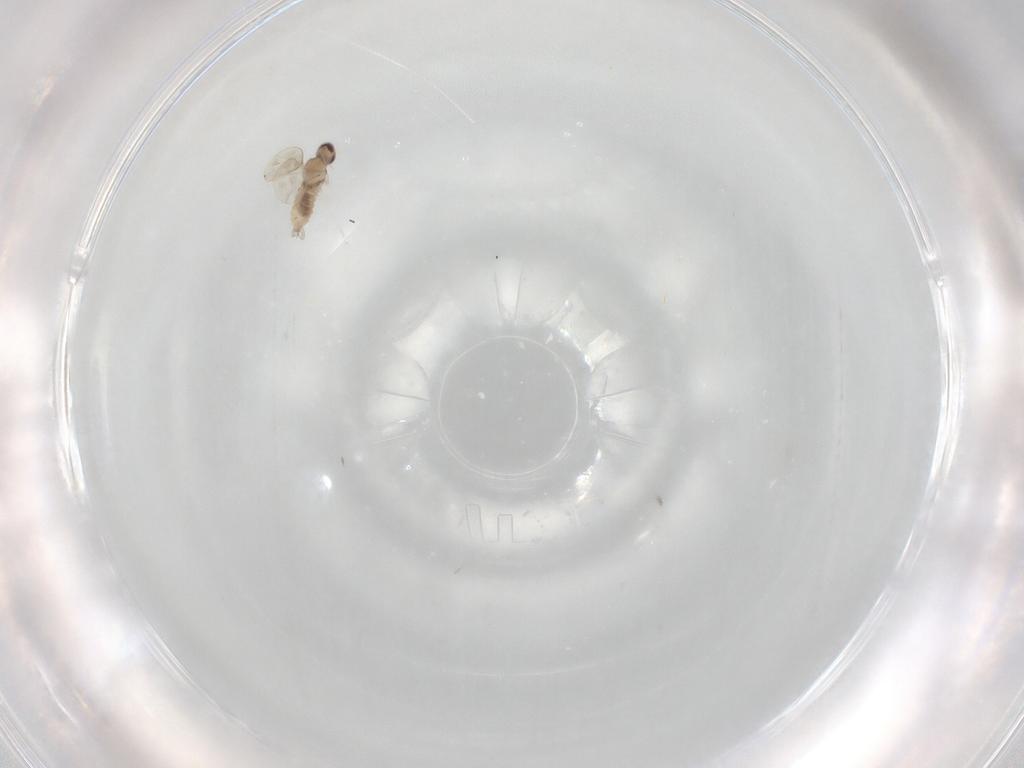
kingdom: Animalia
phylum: Arthropoda
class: Insecta
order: Diptera
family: Cecidomyiidae
